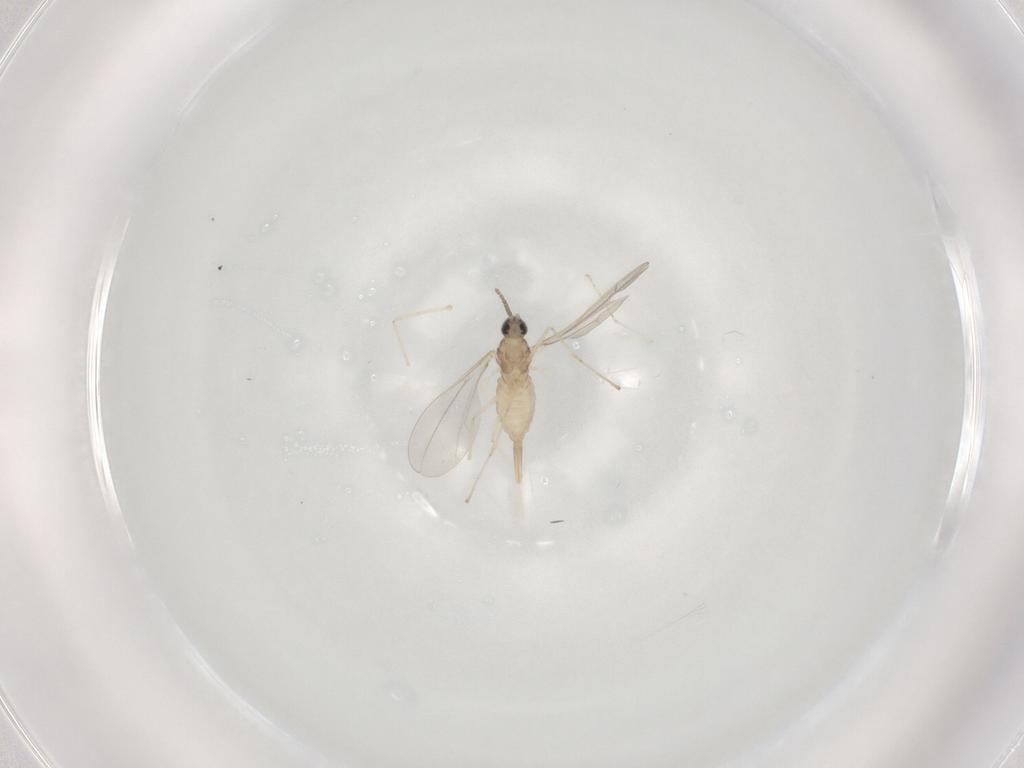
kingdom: Animalia
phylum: Arthropoda
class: Insecta
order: Diptera
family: Cecidomyiidae
